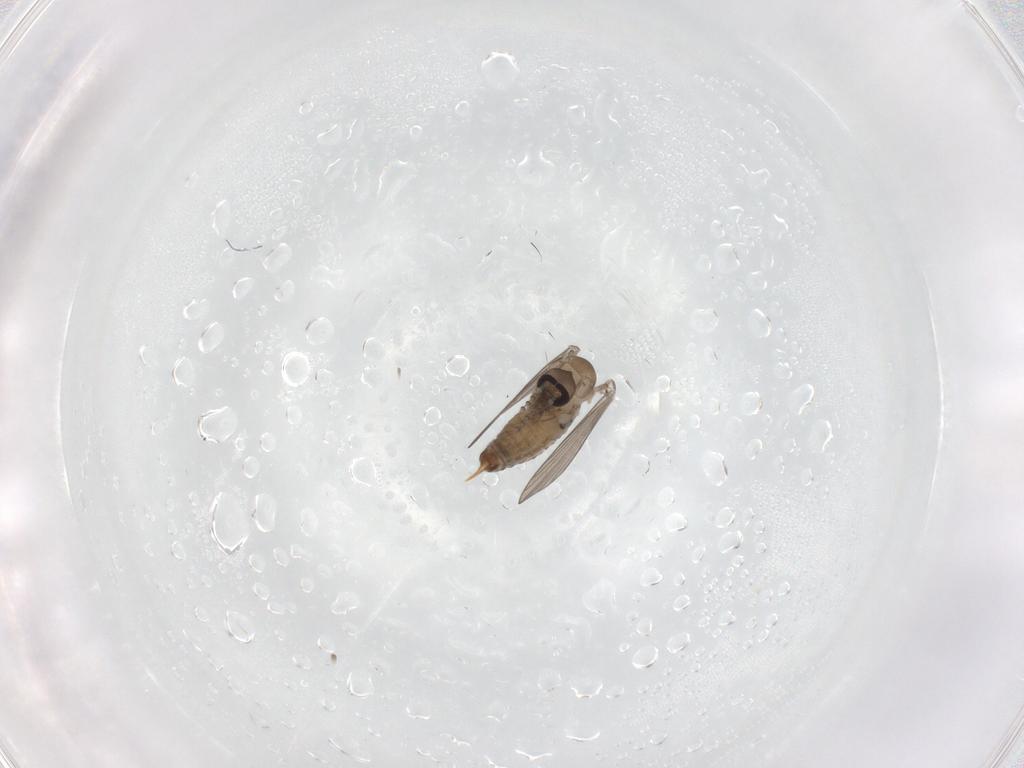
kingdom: Animalia
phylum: Arthropoda
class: Insecta
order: Diptera
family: Psychodidae
